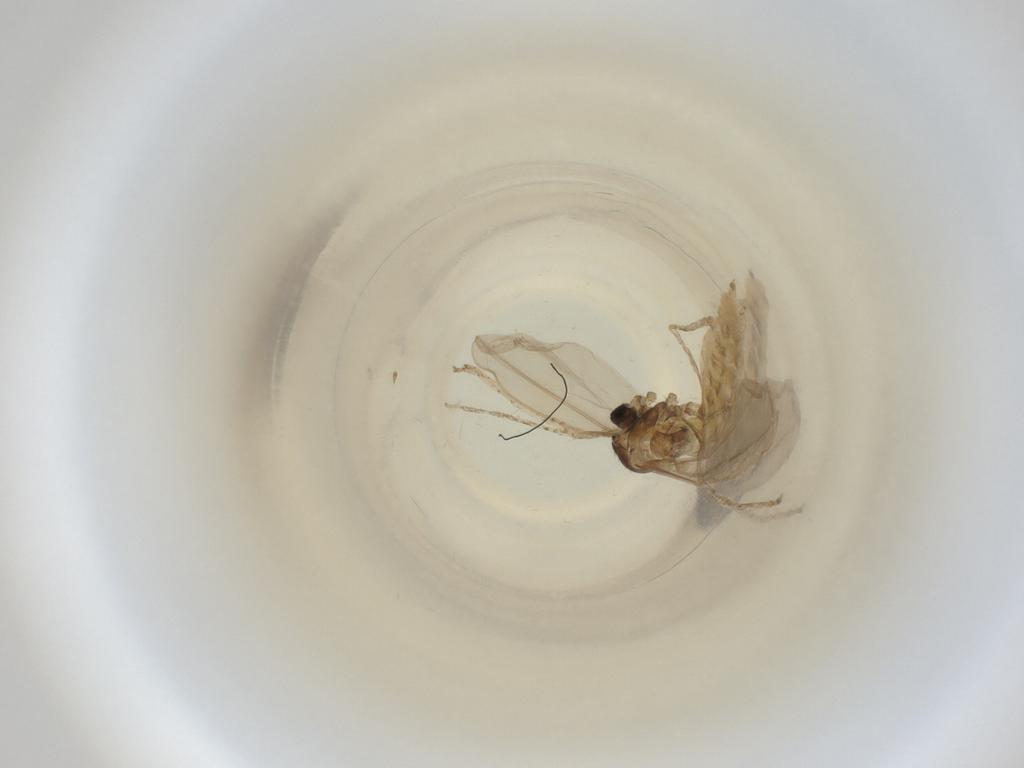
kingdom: Animalia
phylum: Arthropoda
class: Insecta
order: Diptera
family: Cecidomyiidae
